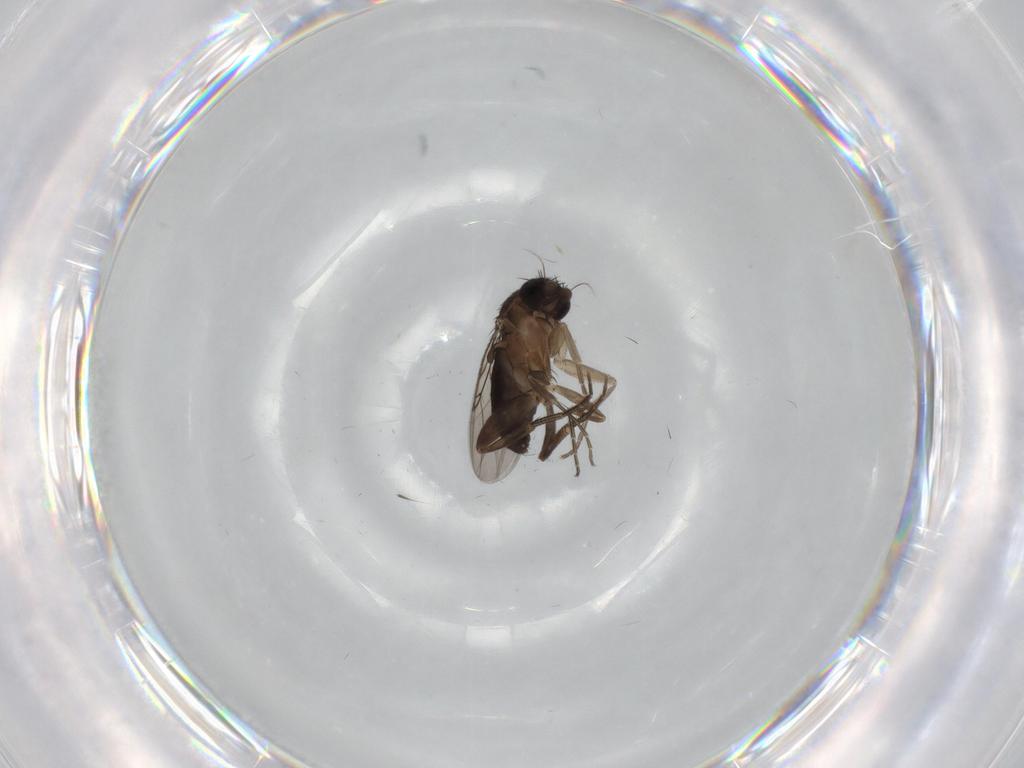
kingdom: Animalia
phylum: Arthropoda
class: Insecta
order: Diptera
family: Phoridae
